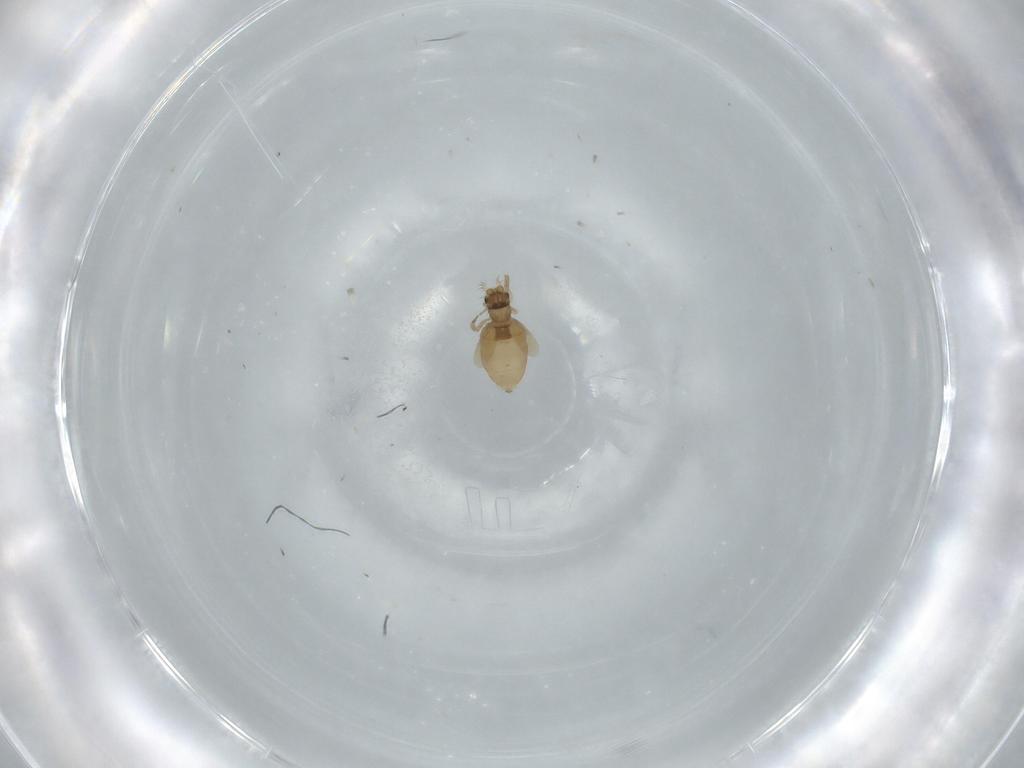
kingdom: Animalia
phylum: Arthropoda
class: Insecta
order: Diptera
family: Phoridae
